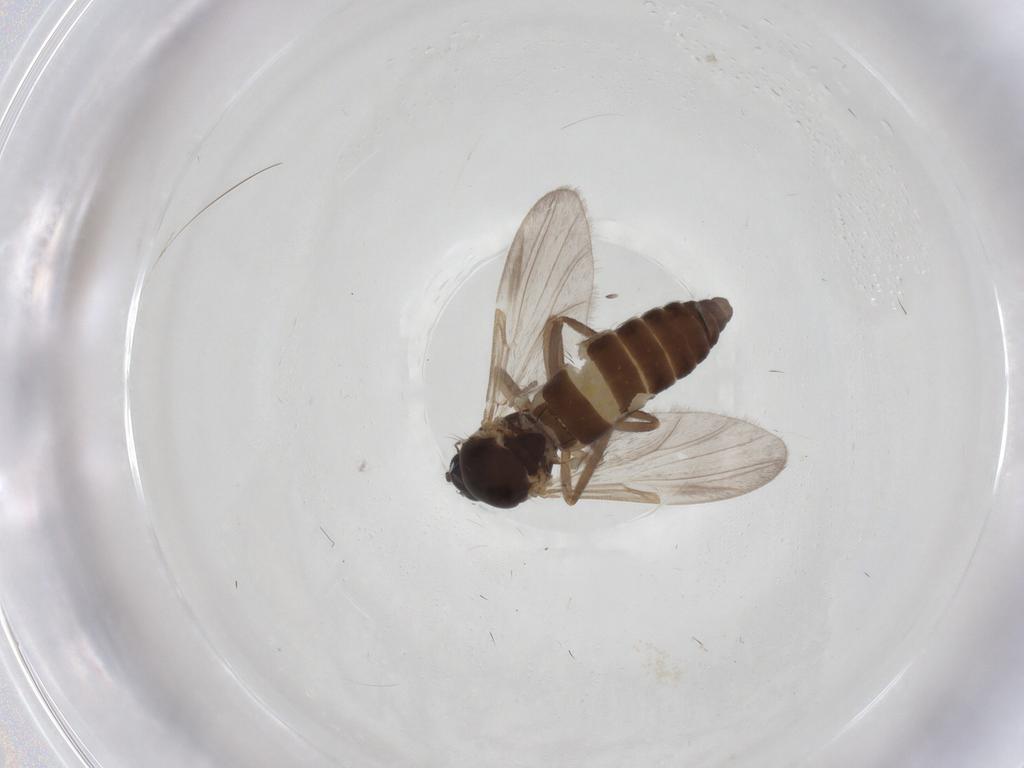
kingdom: Animalia
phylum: Arthropoda
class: Insecta
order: Diptera
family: Ceratopogonidae
